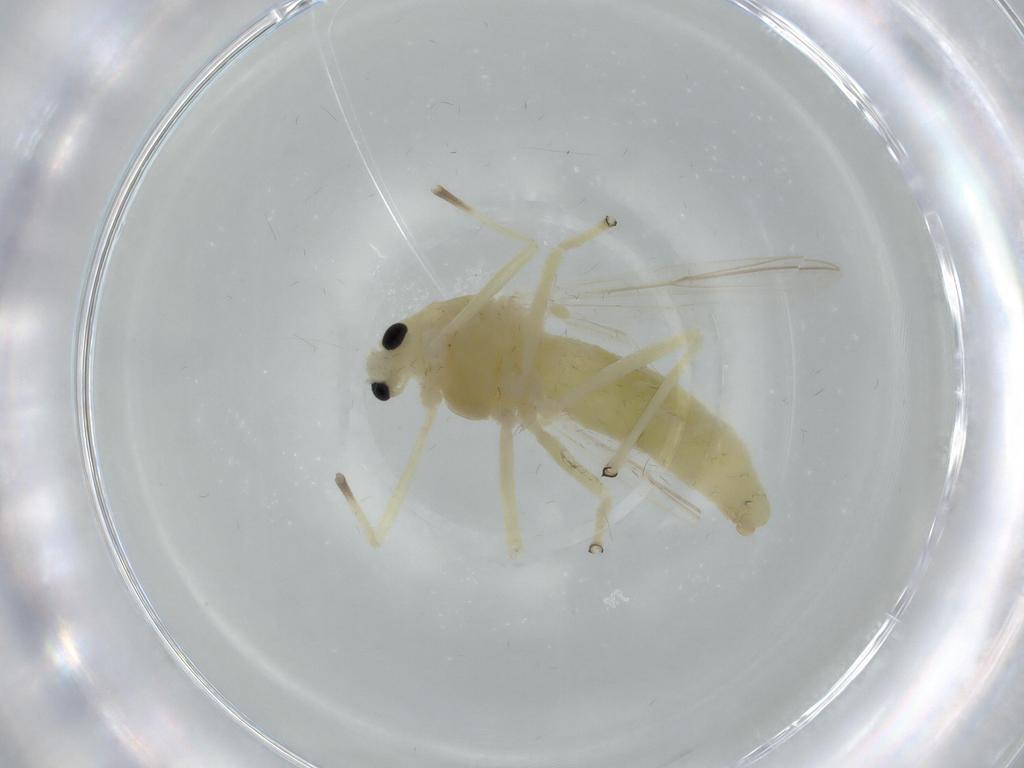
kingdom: Animalia
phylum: Arthropoda
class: Insecta
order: Diptera
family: Chironomidae
